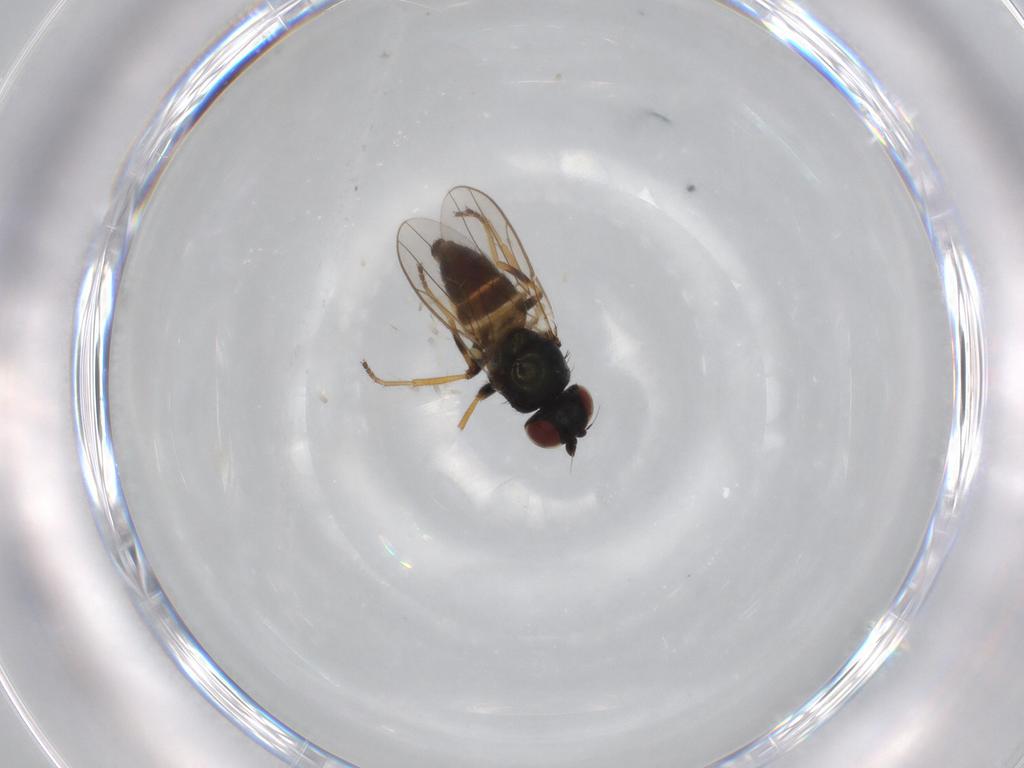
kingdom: Animalia
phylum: Arthropoda
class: Insecta
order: Diptera
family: Chloropidae
